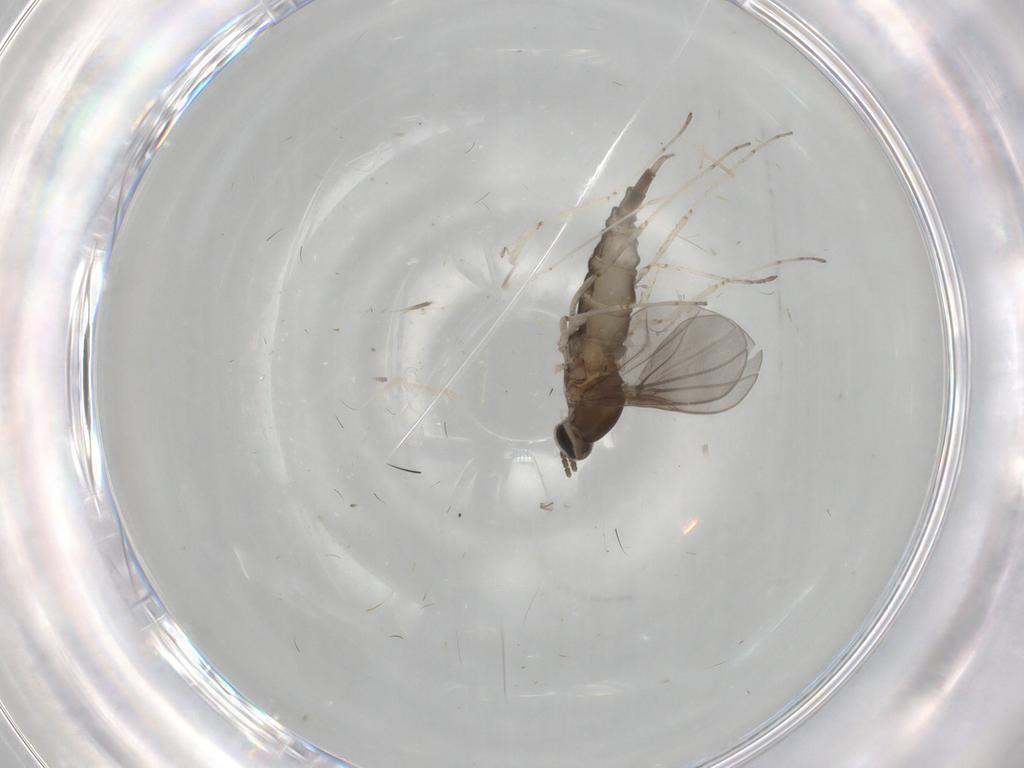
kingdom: Animalia
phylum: Arthropoda
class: Insecta
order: Diptera
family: Cecidomyiidae
